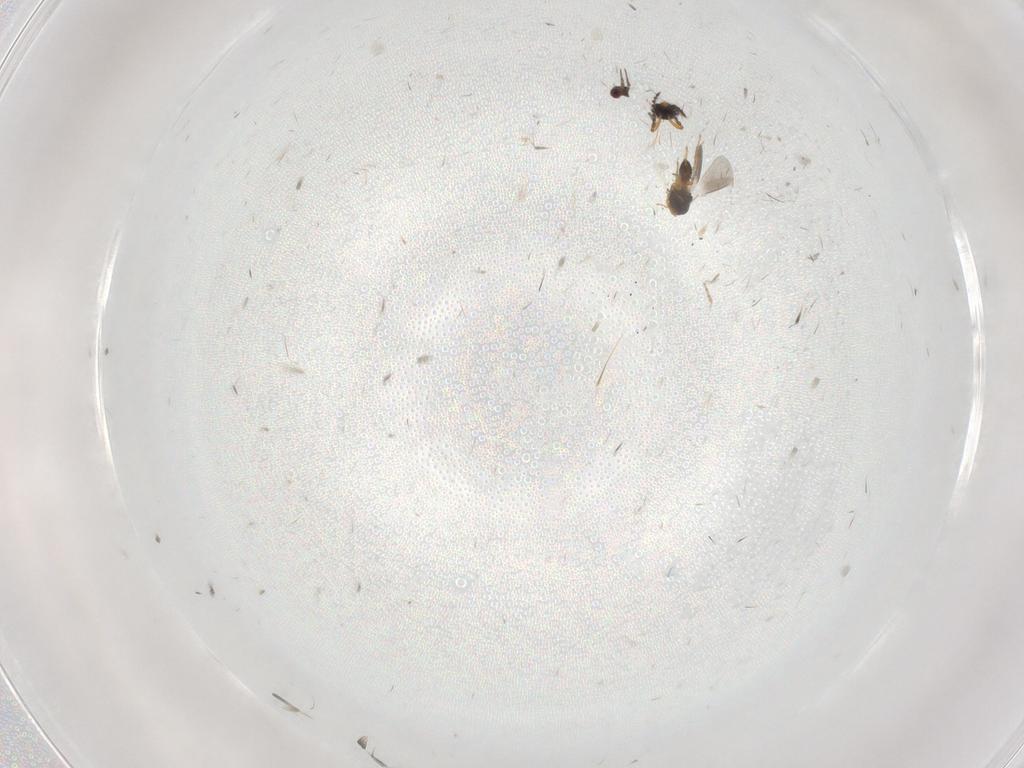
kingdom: Animalia
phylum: Arthropoda
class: Insecta
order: Hymenoptera
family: Platygastridae
